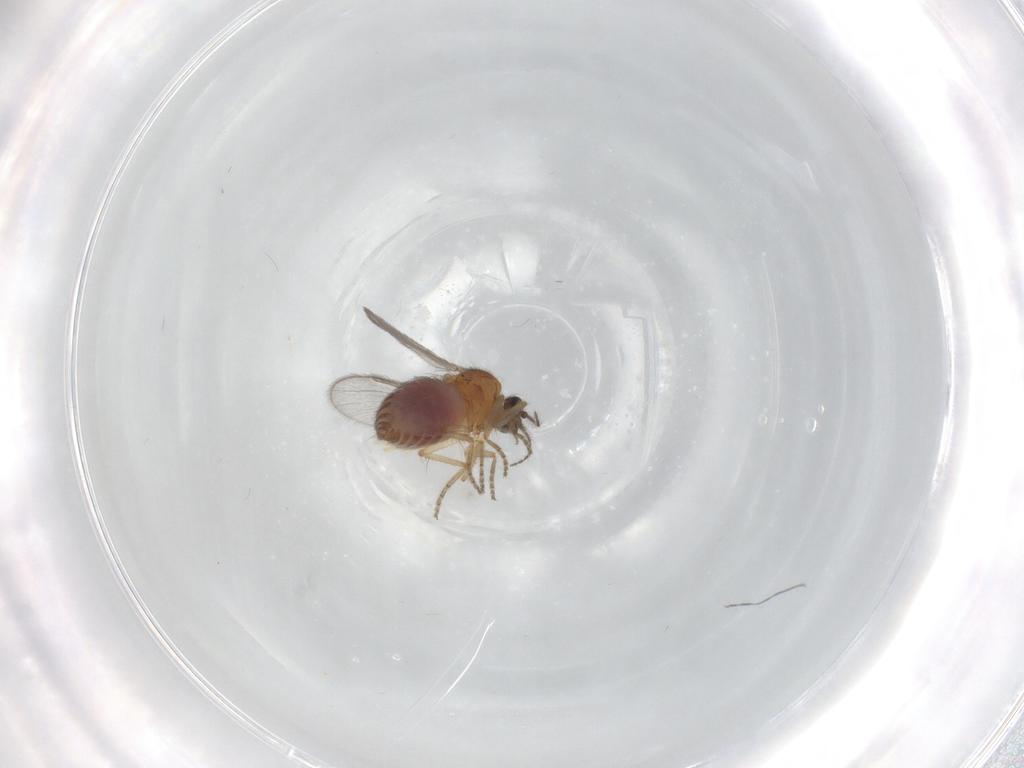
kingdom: Animalia
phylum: Arthropoda
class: Insecta
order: Diptera
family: Ceratopogonidae
